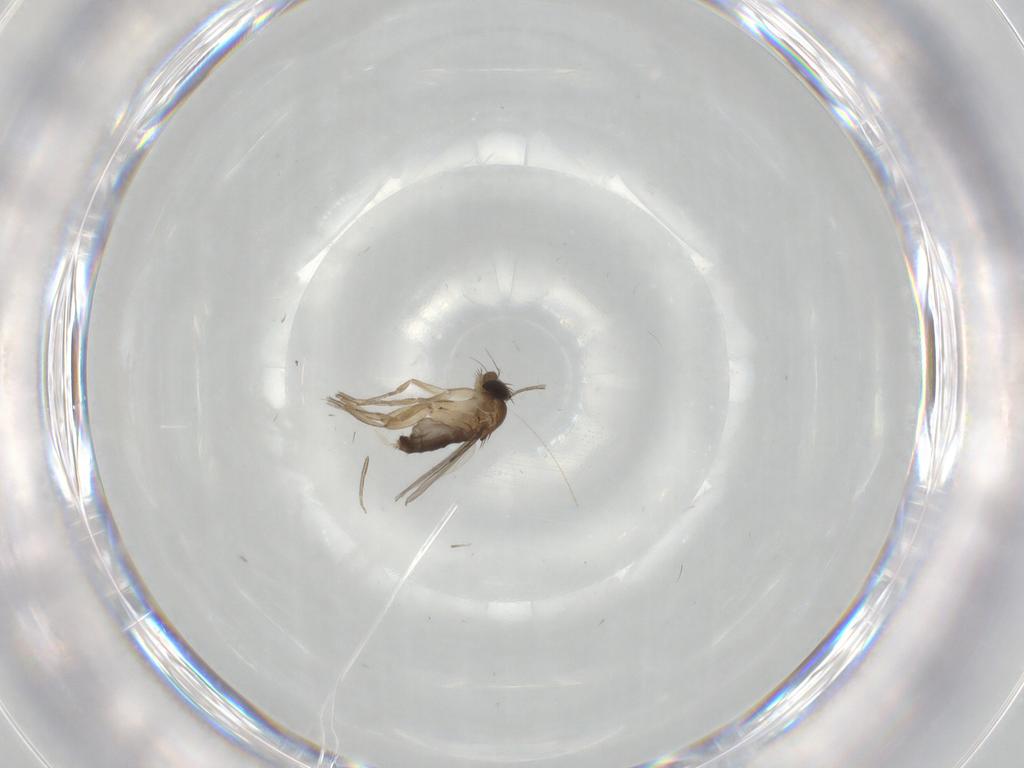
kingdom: Animalia
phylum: Arthropoda
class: Insecta
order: Diptera
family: Phoridae
